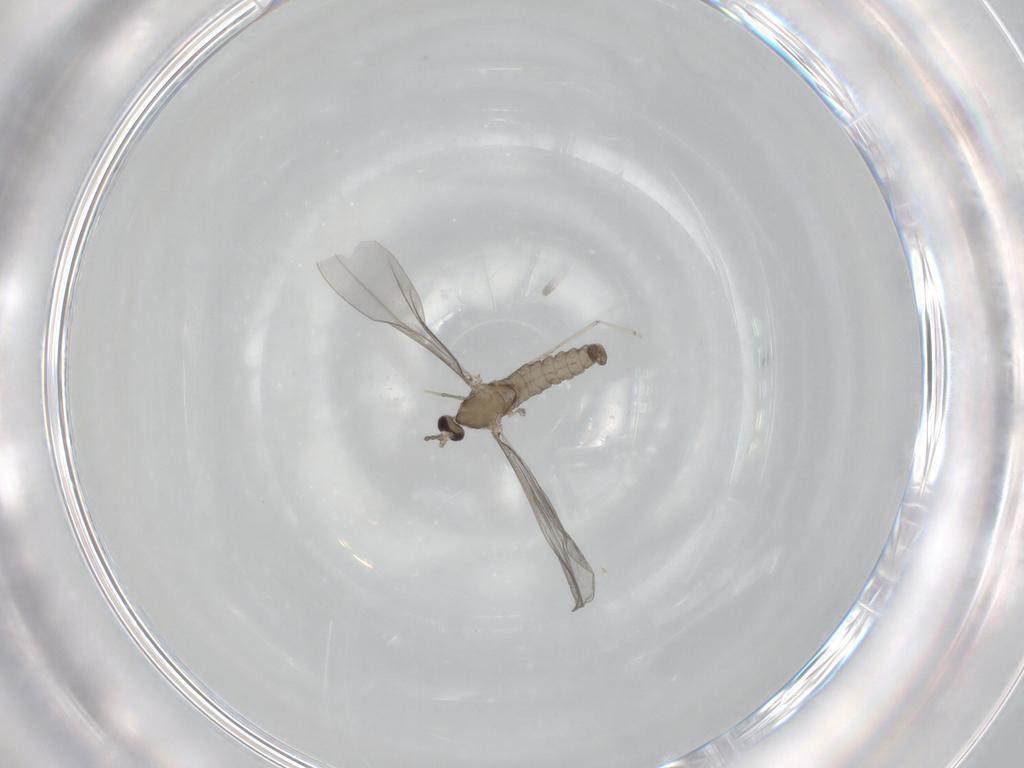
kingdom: Animalia
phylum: Arthropoda
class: Insecta
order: Diptera
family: Cecidomyiidae
